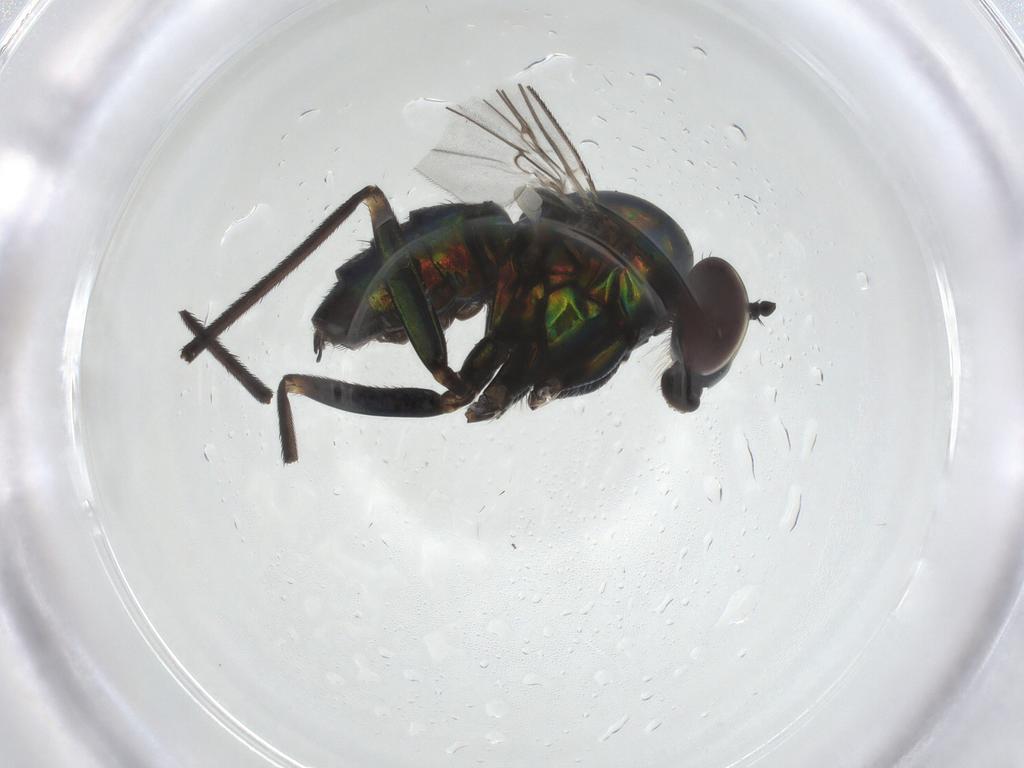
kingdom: Animalia
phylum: Arthropoda
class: Insecta
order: Diptera
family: Dolichopodidae
